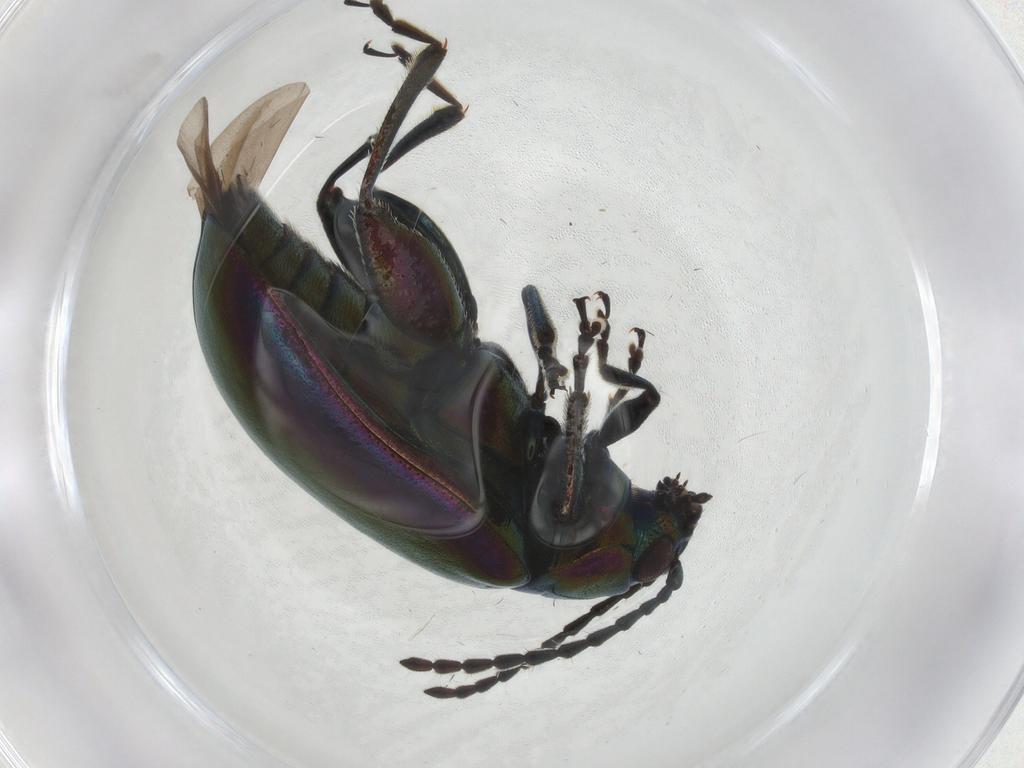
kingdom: Animalia
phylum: Arthropoda
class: Insecta
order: Coleoptera
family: Chrysomelidae
